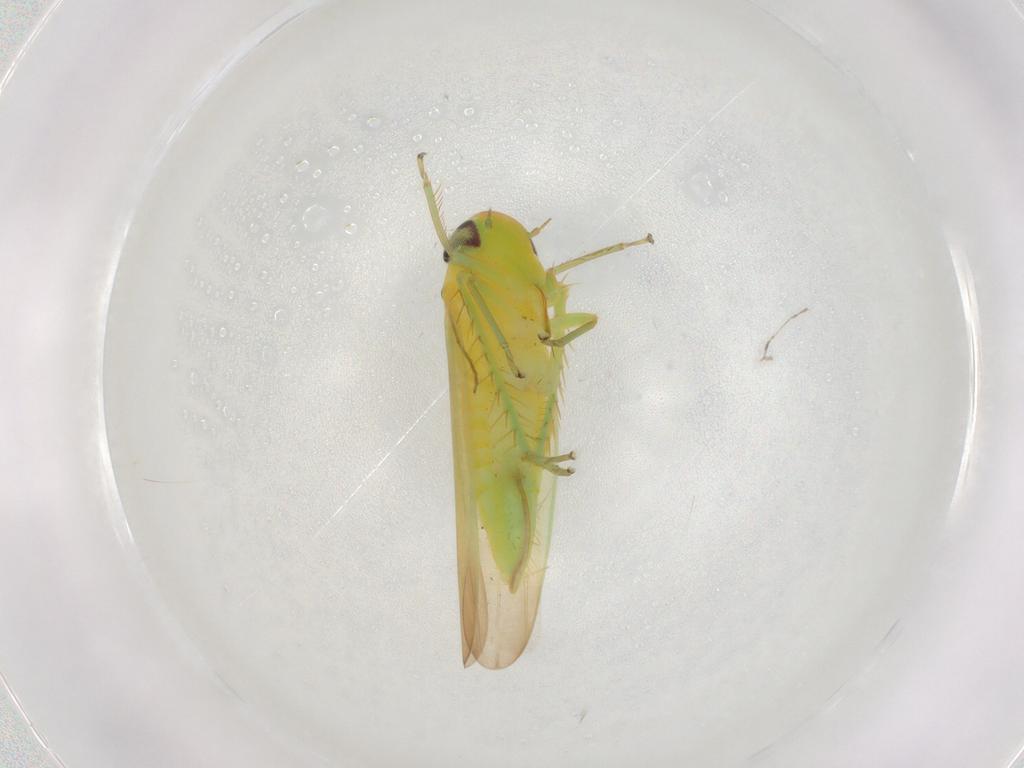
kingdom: Animalia
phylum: Arthropoda
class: Insecta
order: Hemiptera
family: Cicadellidae
